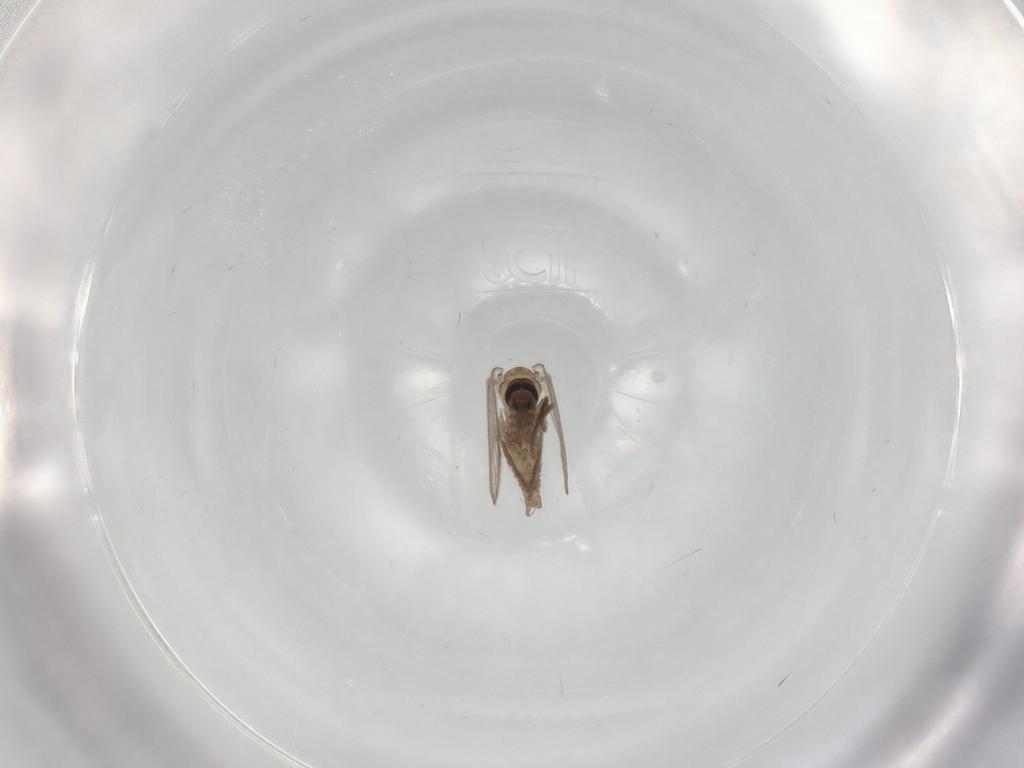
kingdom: Animalia
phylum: Arthropoda
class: Insecta
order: Diptera
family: Psychodidae
